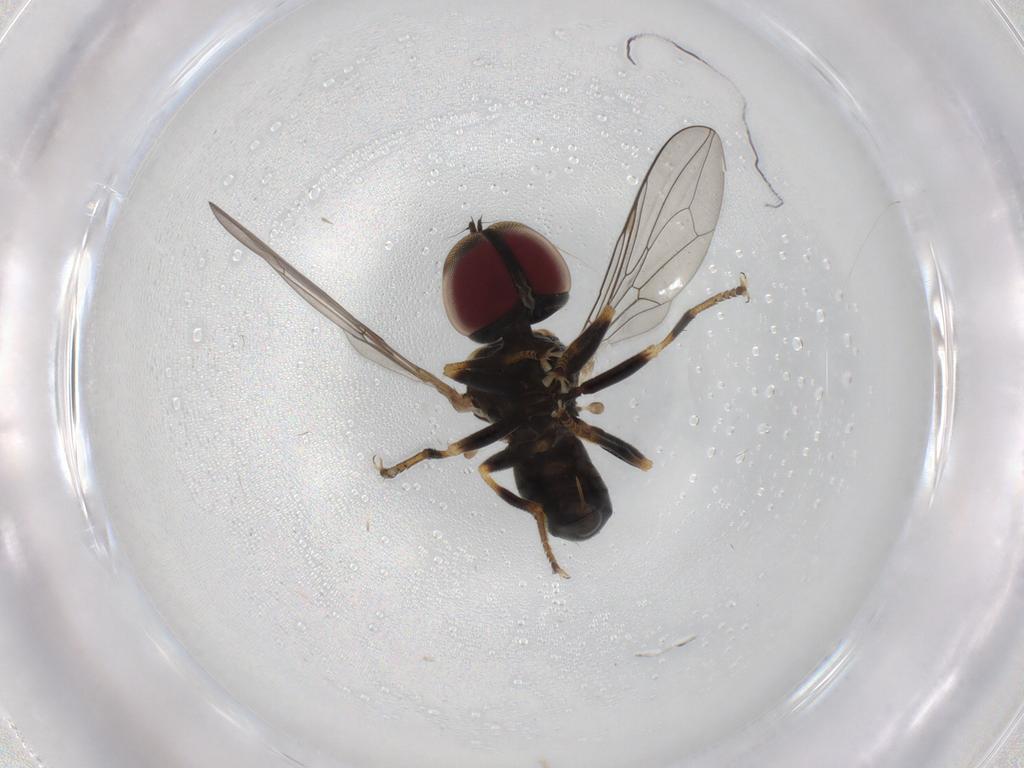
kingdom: Animalia
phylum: Arthropoda
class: Insecta
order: Diptera
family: Pipunculidae
